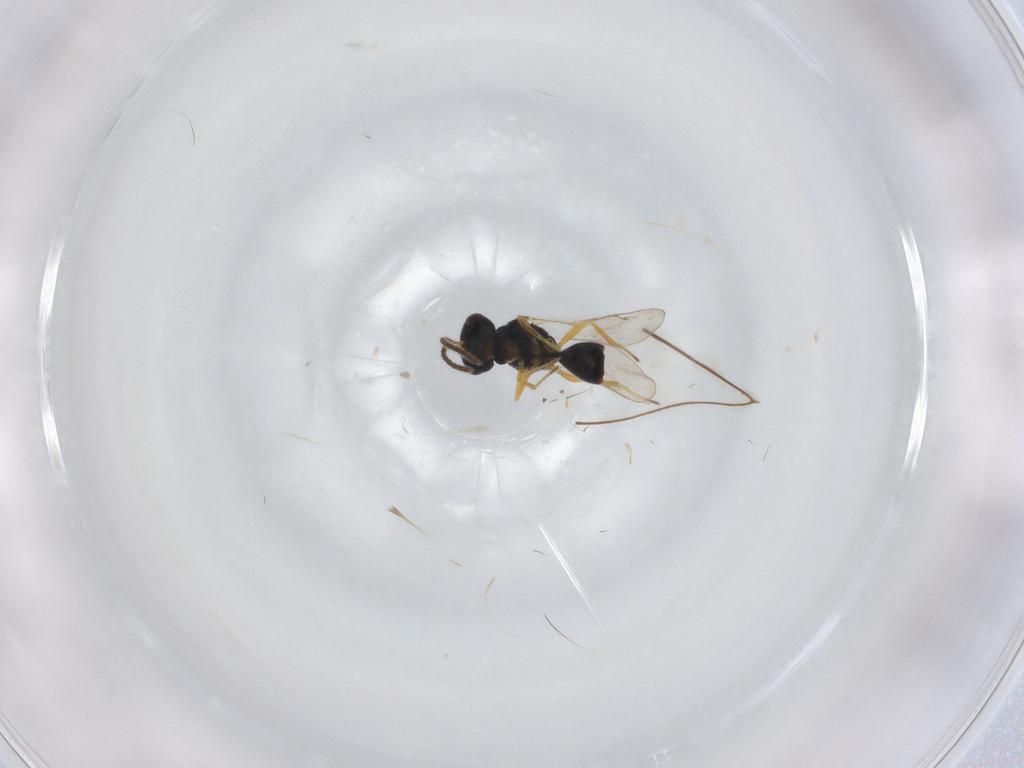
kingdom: Animalia
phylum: Arthropoda
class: Insecta
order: Hymenoptera
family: Pteromalidae
